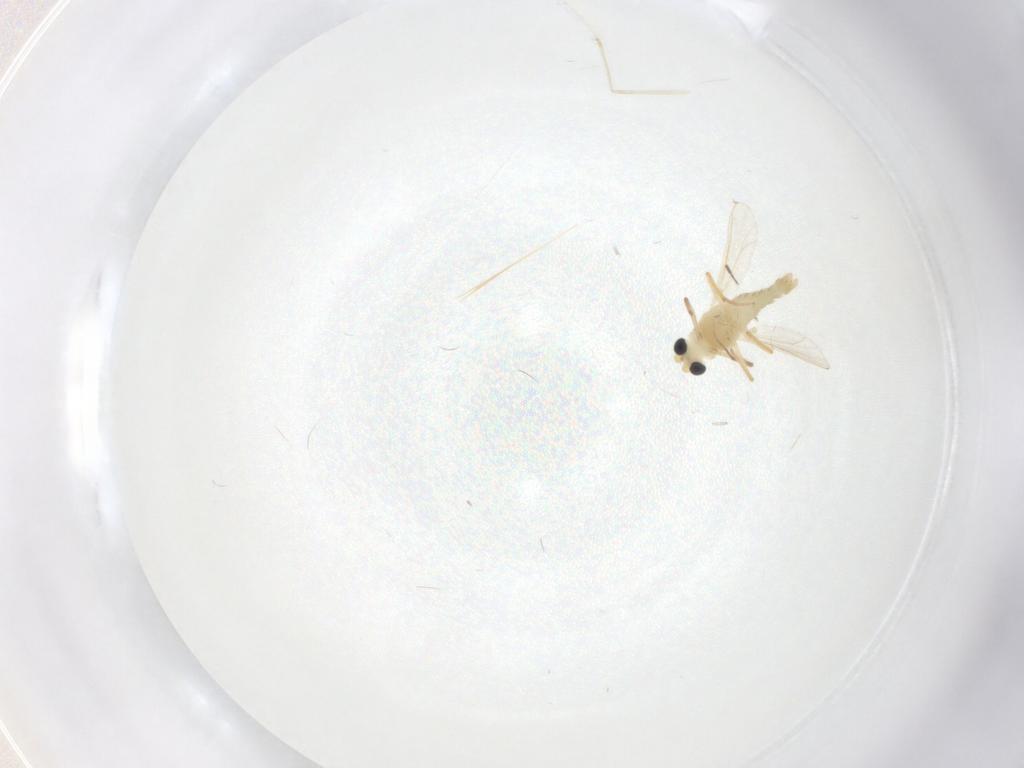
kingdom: Animalia
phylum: Arthropoda
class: Insecta
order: Diptera
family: Chironomidae
